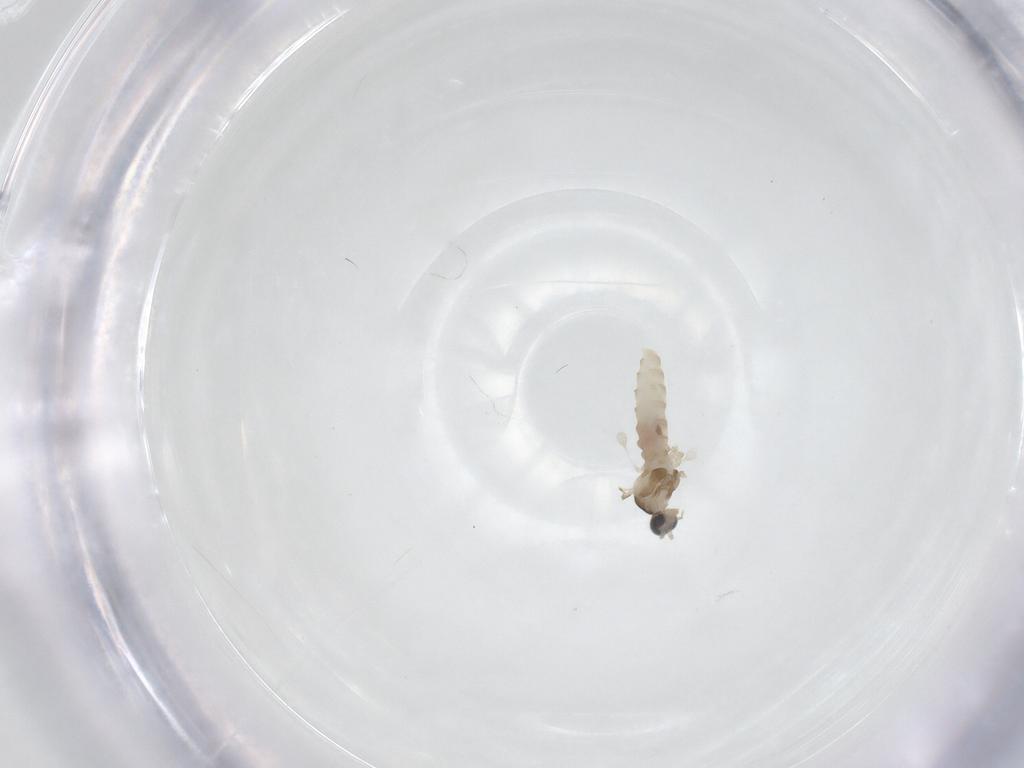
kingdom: Animalia
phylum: Arthropoda
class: Insecta
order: Diptera
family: Cecidomyiidae
